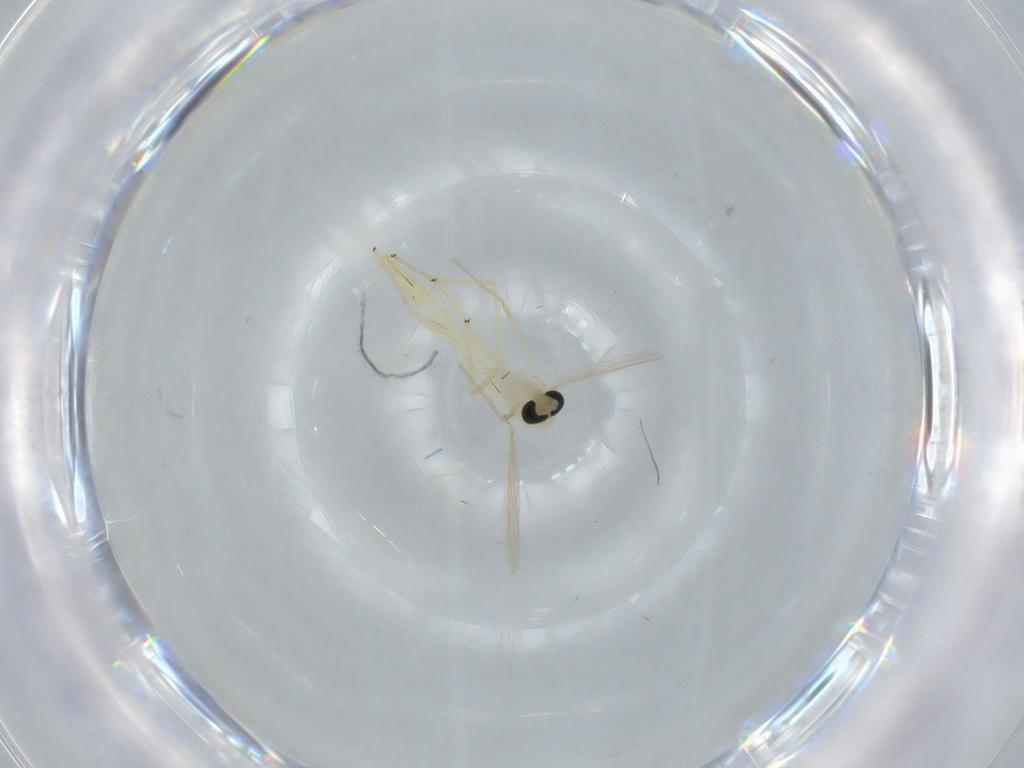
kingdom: Animalia
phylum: Arthropoda
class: Insecta
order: Diptera
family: Chironomidae
